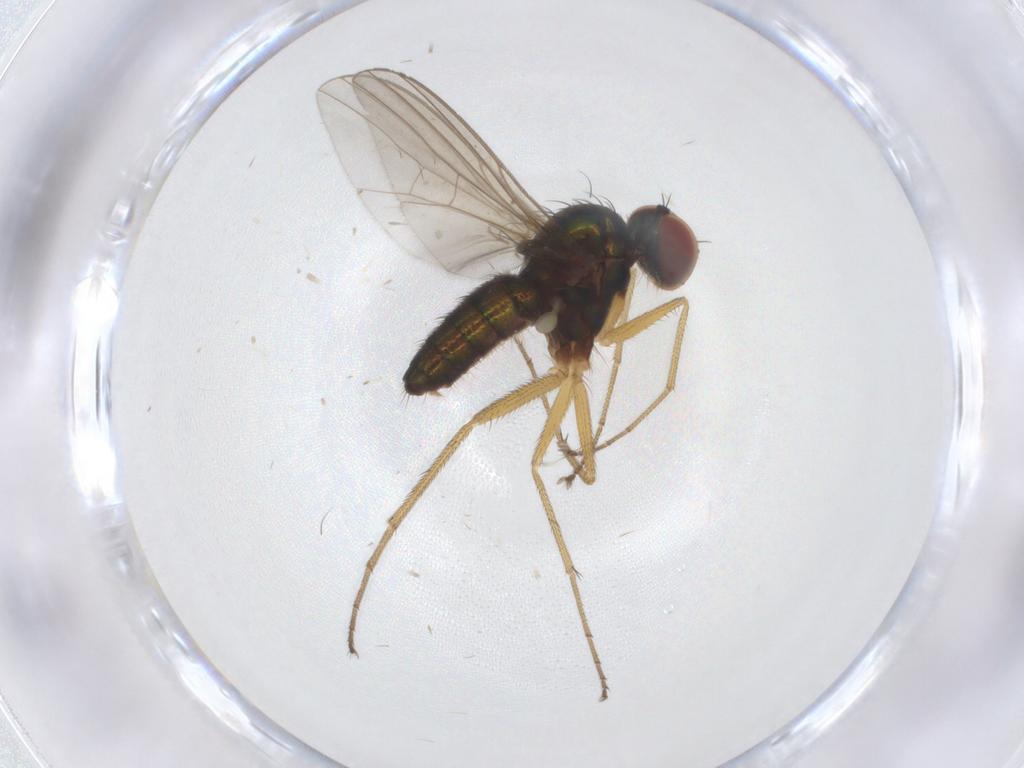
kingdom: Animalia
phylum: Arthropoda
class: Insecta
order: Diptera
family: Dolichopodidae
